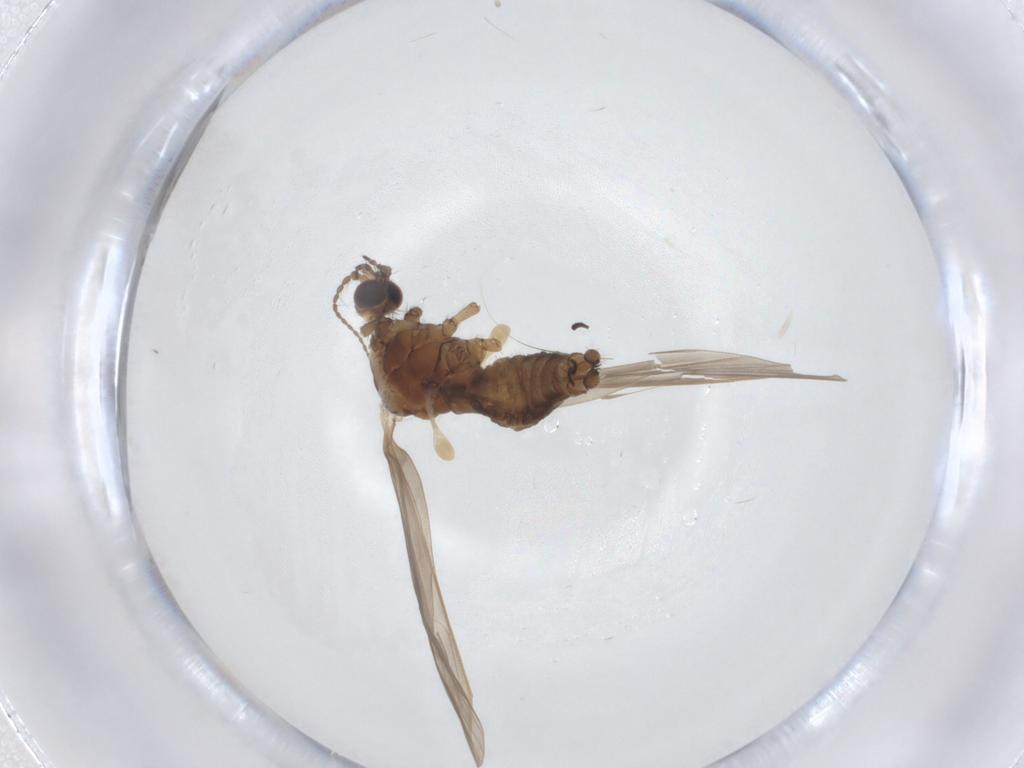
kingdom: Animalia
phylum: Arthropoda
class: Insecta
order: Diptera
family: Limoniidae
